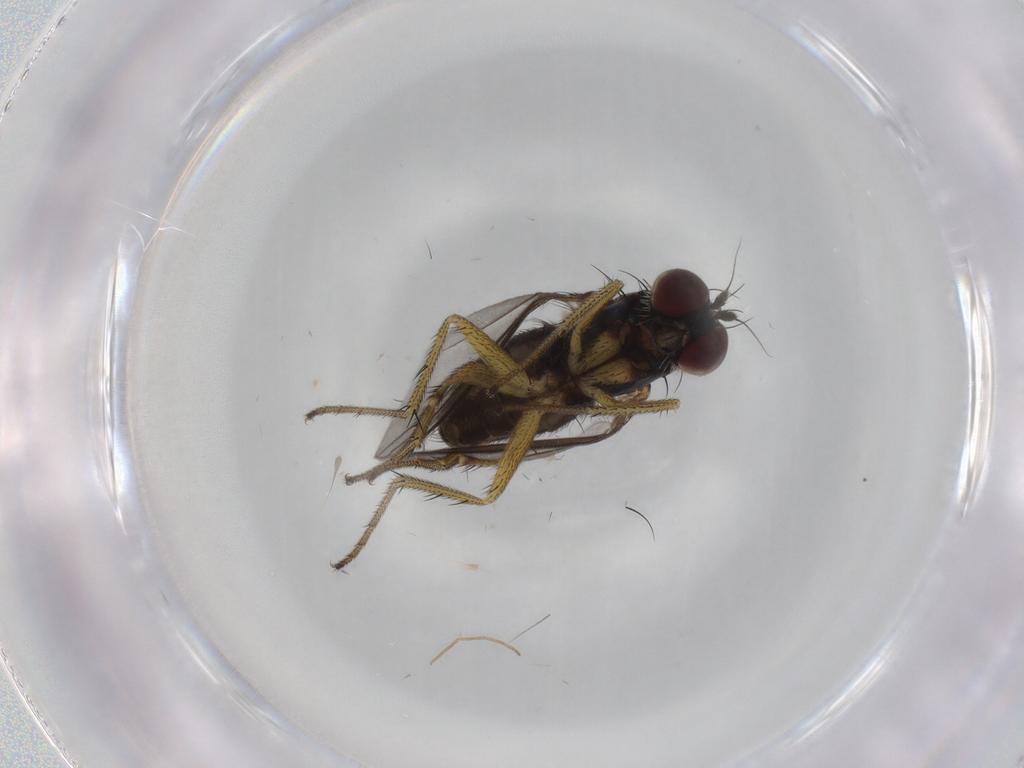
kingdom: Animalia
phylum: Arthropoda
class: Insecta
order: Diptera
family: Dolichopodidae
